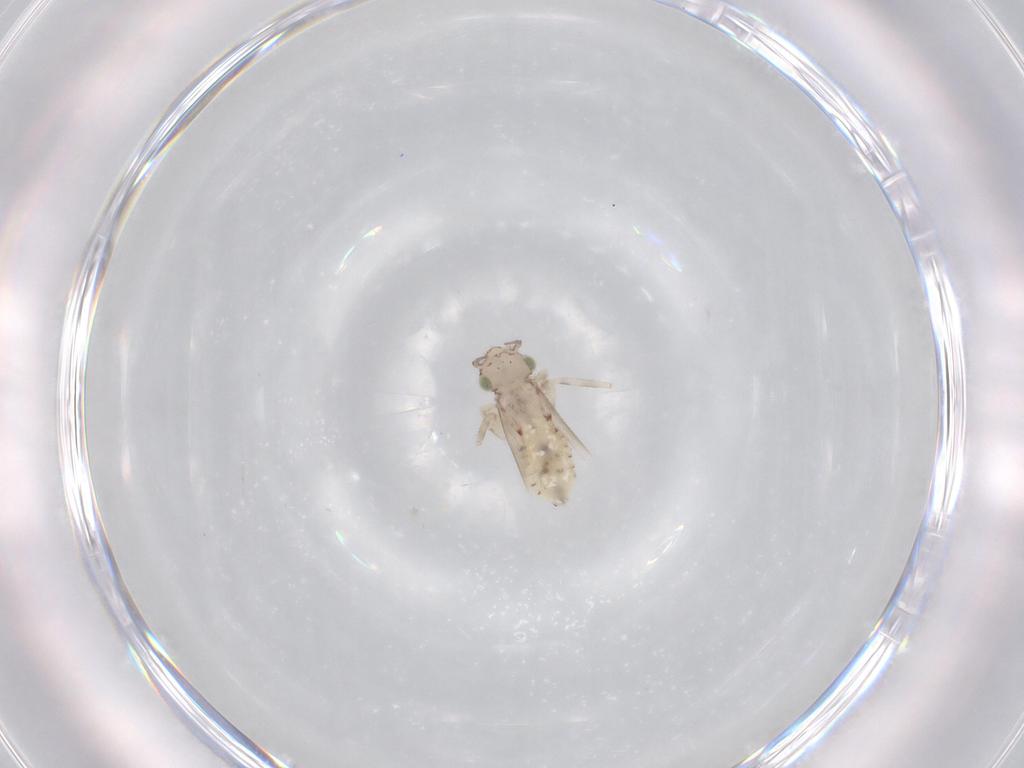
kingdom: Animalia
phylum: Arthropoda
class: Insecta
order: Psocodea
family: Lepidopsocidae
